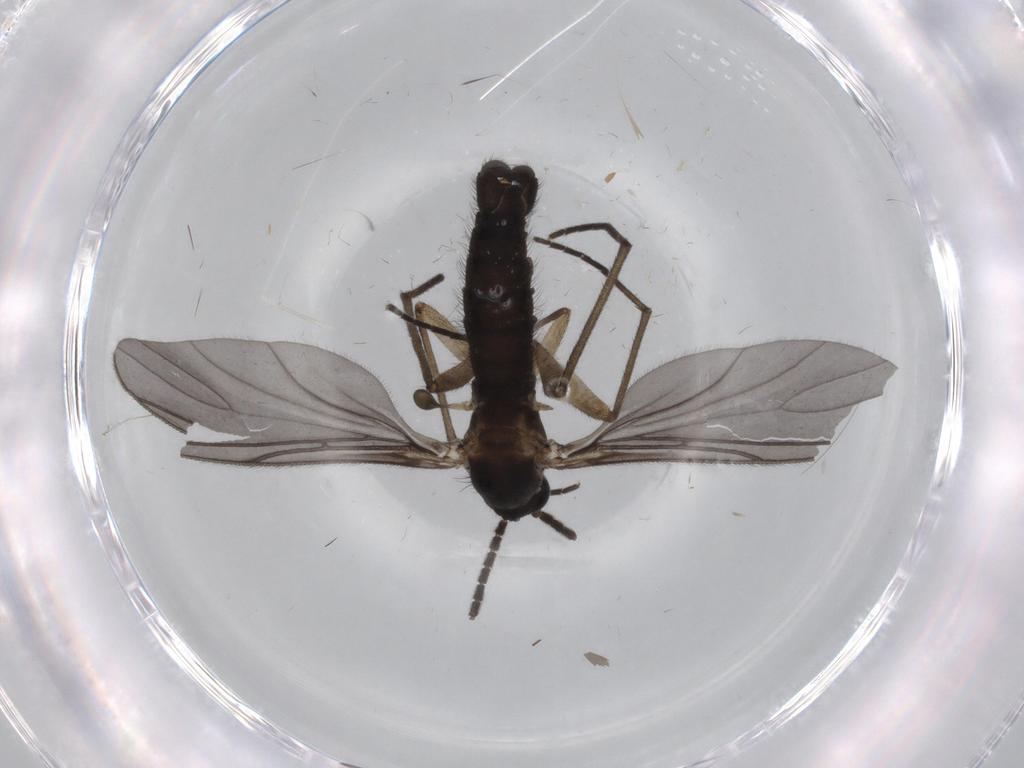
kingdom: Animalia
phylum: Arthropoda
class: Insecta
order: Diptera
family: Sciaridae
